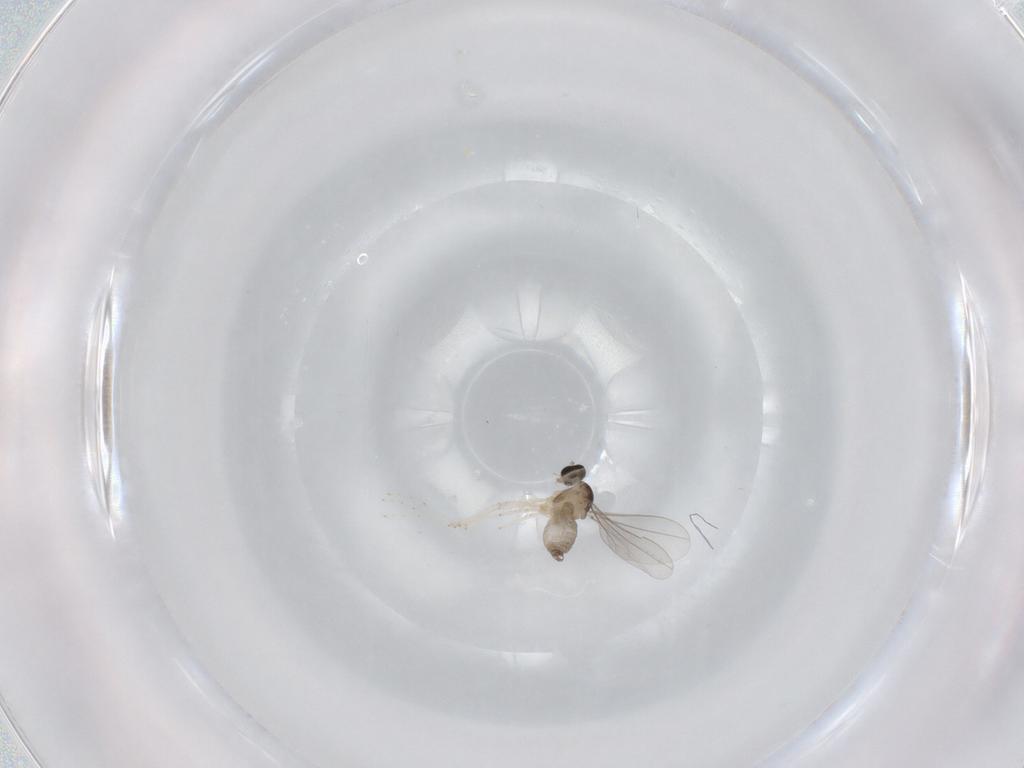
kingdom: Animalia
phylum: Arthropoda
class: Insecta
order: Diptera
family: Cecidomyiidae
